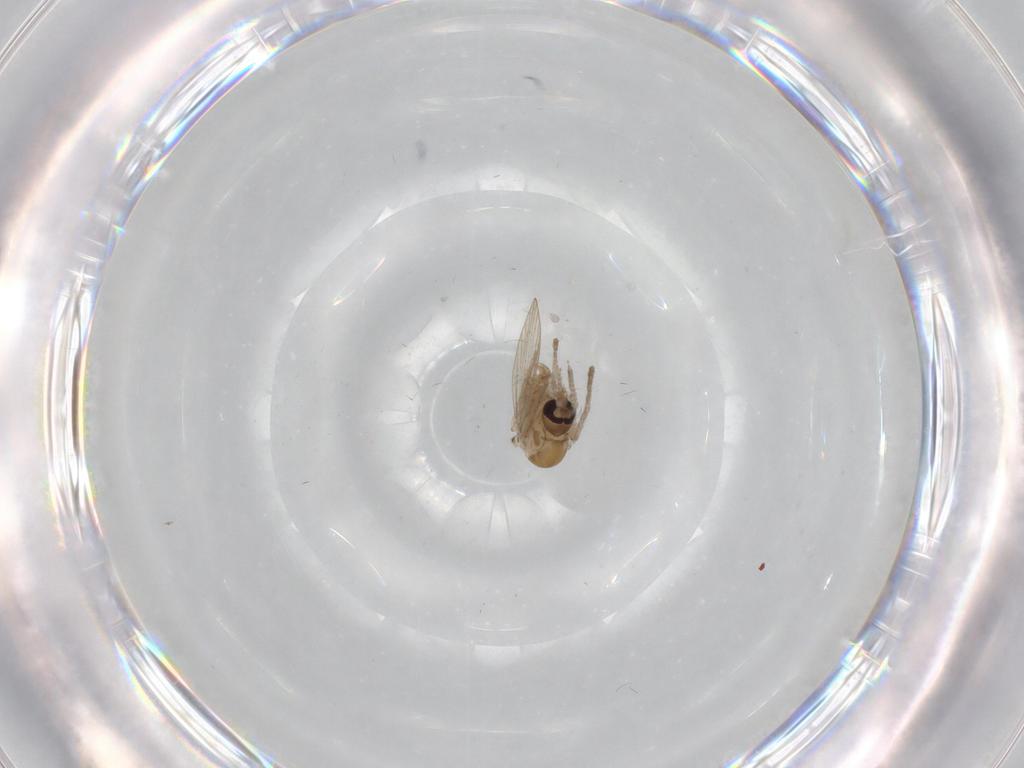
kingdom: Animalia
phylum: Arthropoda
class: Insecta
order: Diptera
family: Psychodidae
